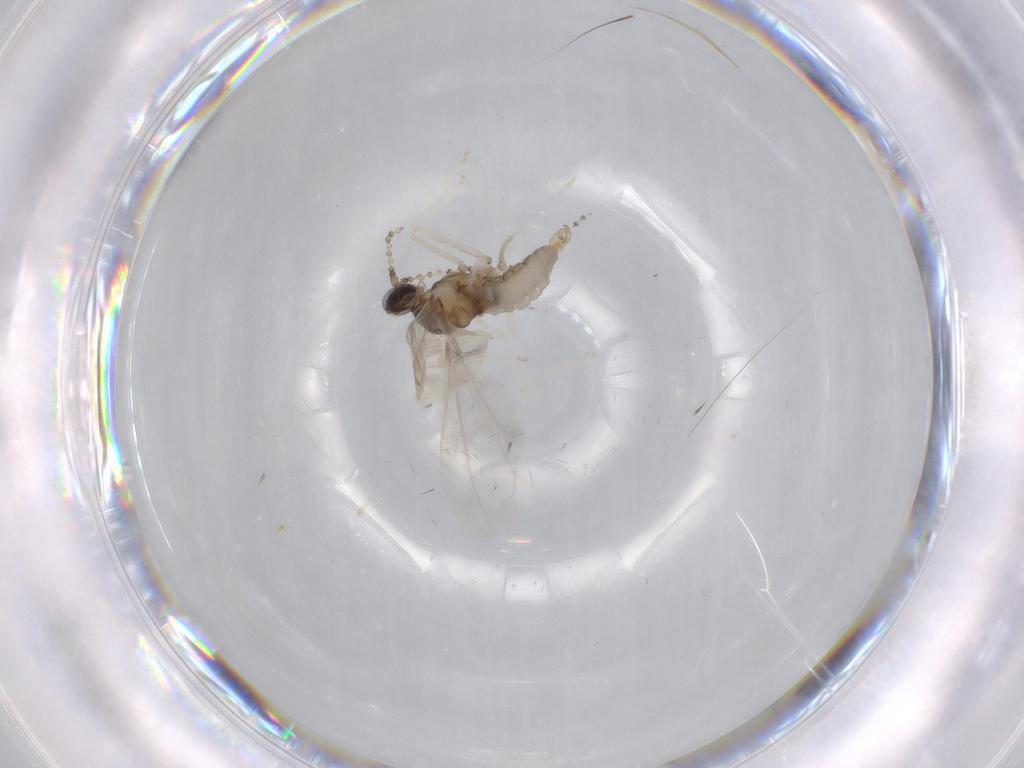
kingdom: Animalia
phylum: Arthropoda
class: Insecta
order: Diptera
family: Cecidomyiidae
